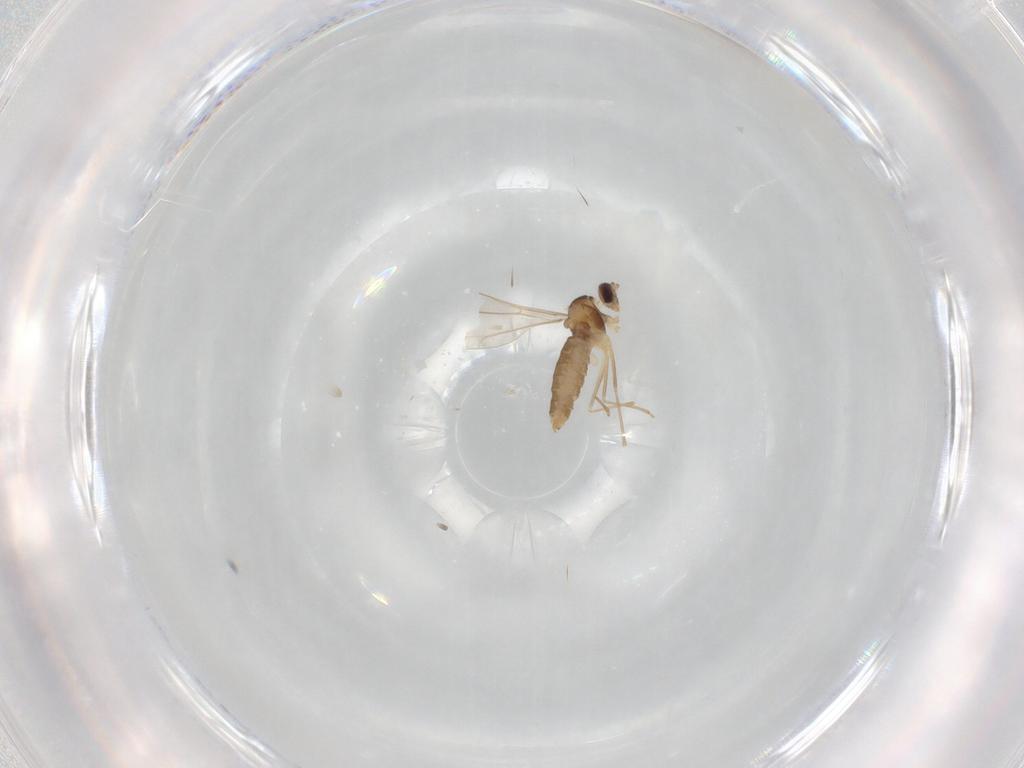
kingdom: Animalia
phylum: Arthropoda
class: Insecta
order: Diptera
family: Cecidomyiidae
